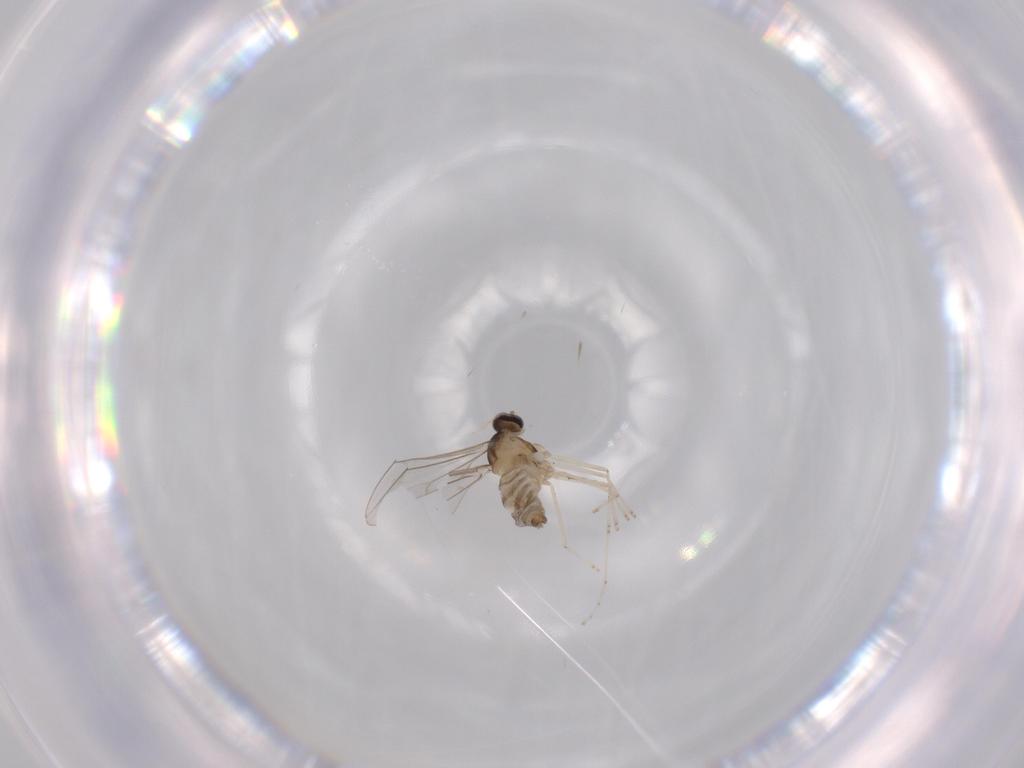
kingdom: Animalia
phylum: Arthropoda
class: Insecta
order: Diptera
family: Cecidomyiidae
